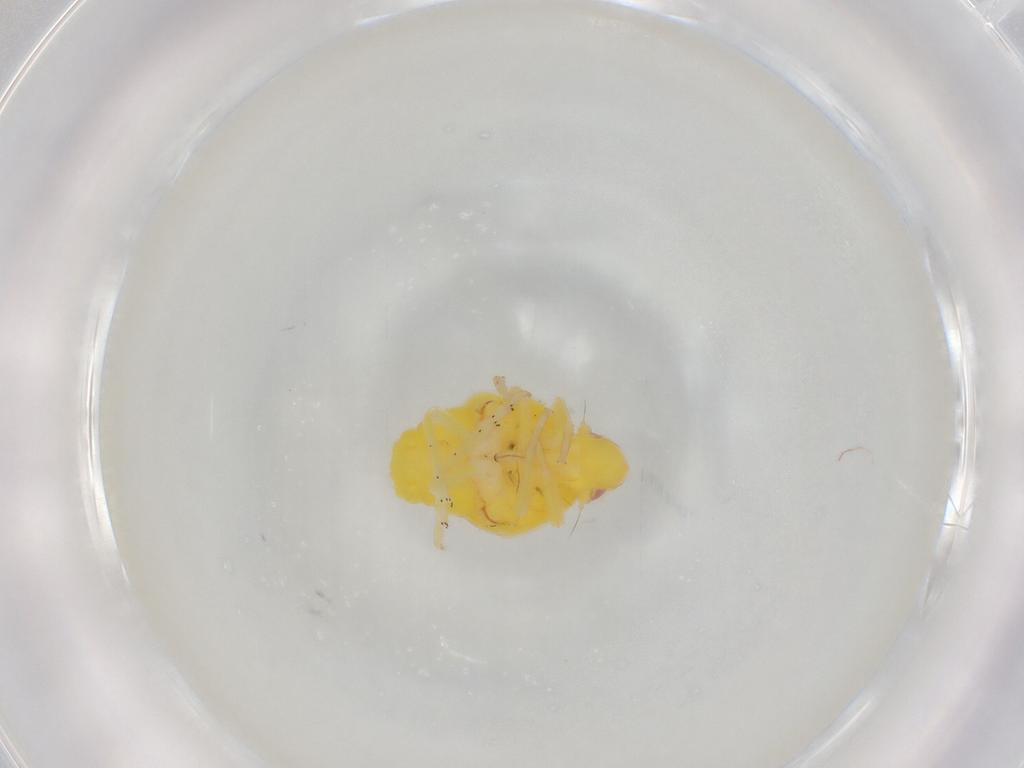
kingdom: Animalia
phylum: Arthropoda
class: Insecta
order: Hemiptera
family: Tropiduchidae
